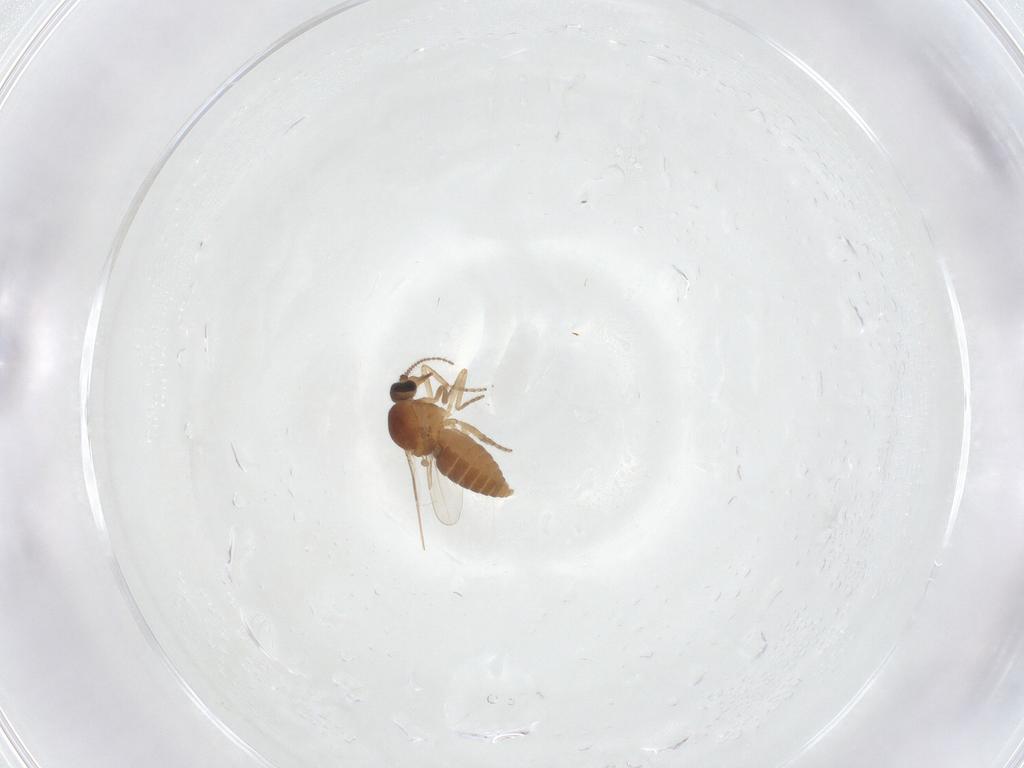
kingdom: Animalia
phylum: Arthropoda
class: Insecta
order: Diptera
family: Ceratopogonidae
